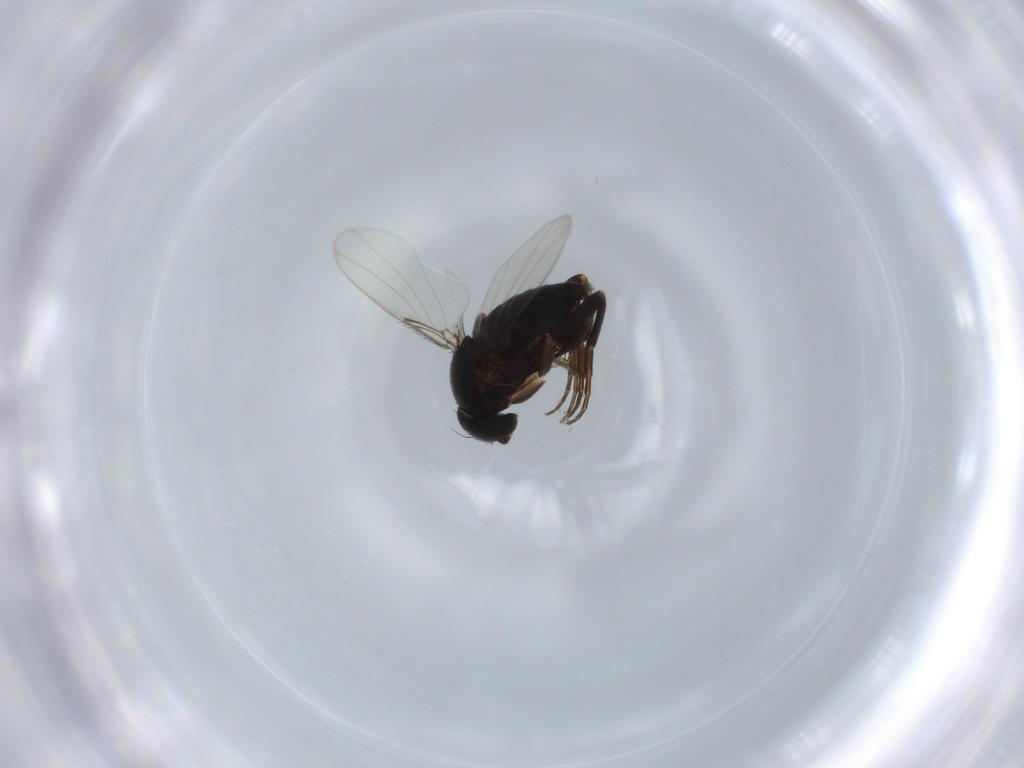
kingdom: Animalia
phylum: Arthropoda
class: Insecta
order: Diptera
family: Phoridae
